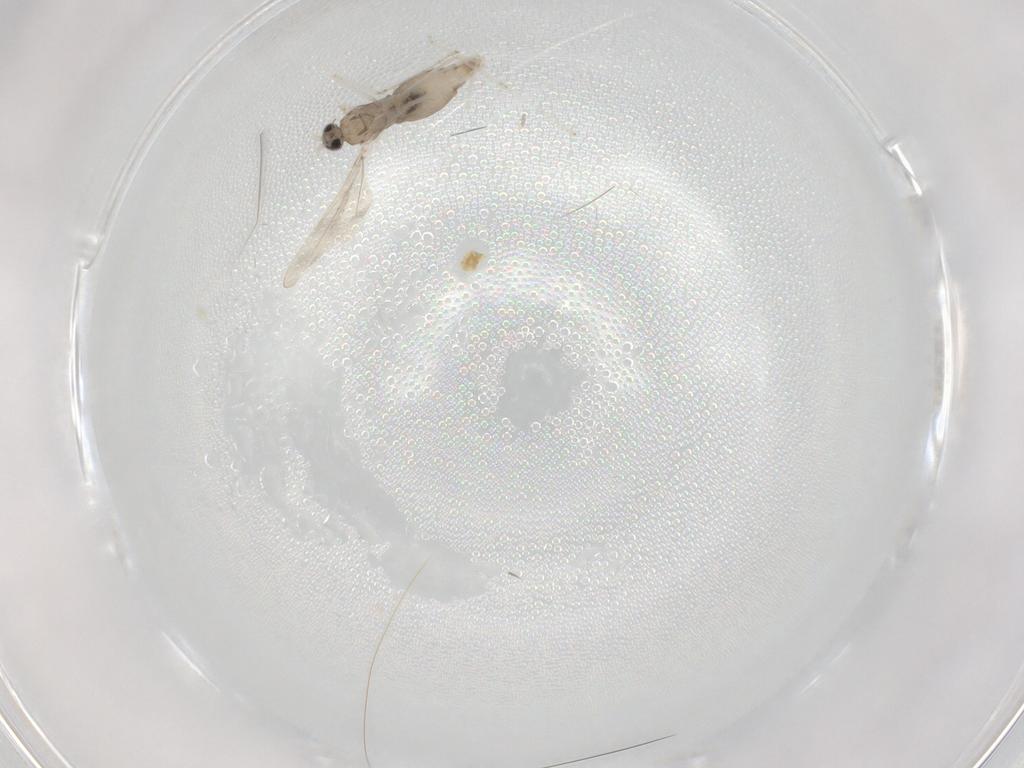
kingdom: Animalia
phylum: Arthropoda
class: Insecta
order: Diptera
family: Cecidomyiidae
